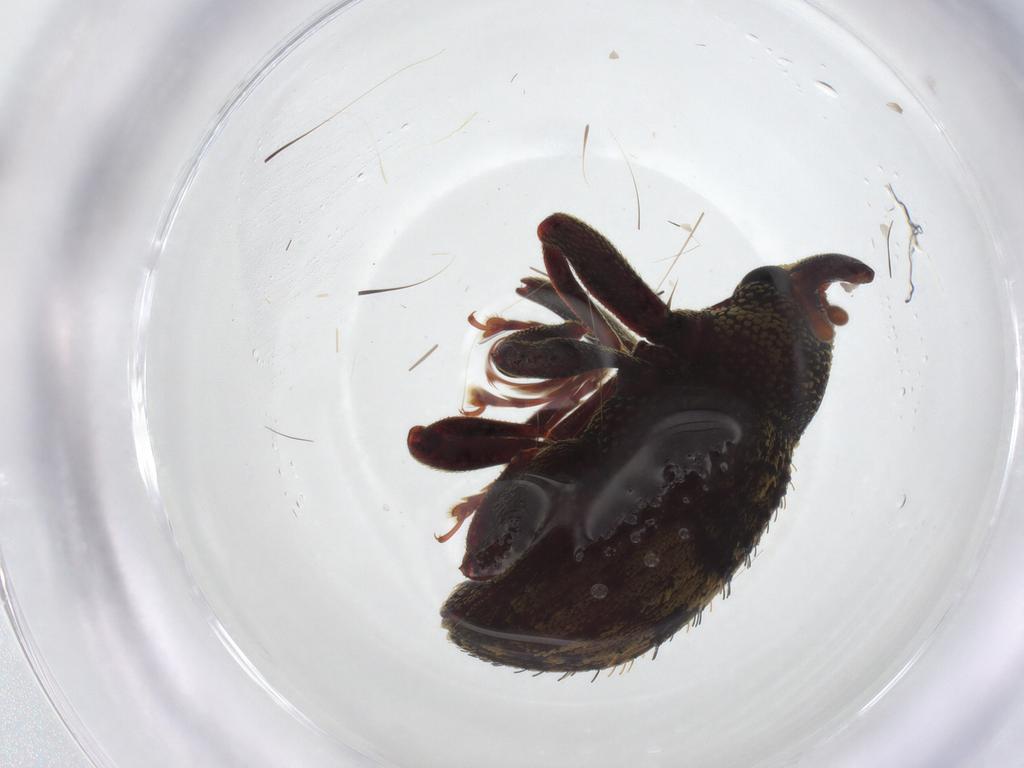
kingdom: Animalia
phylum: Arthropoda
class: Insecta
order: Coleoptera
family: Curculionidae
